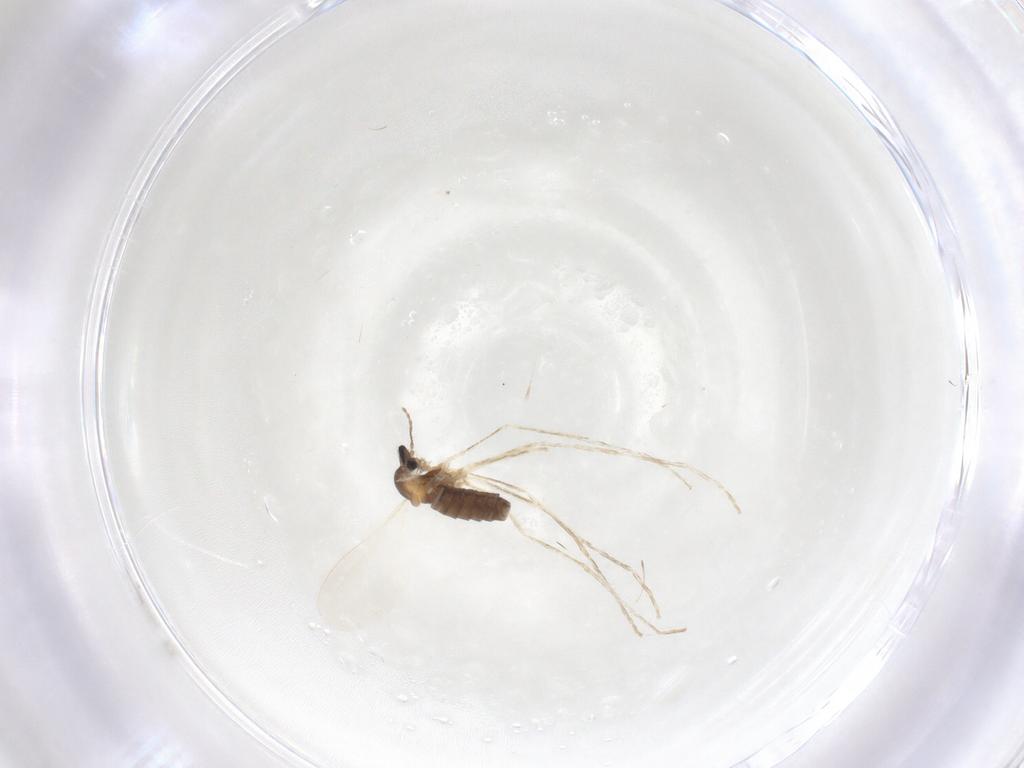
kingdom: Animalia
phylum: Arthropoda
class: Insecta
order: Diptera
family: Cecidomyiidae
